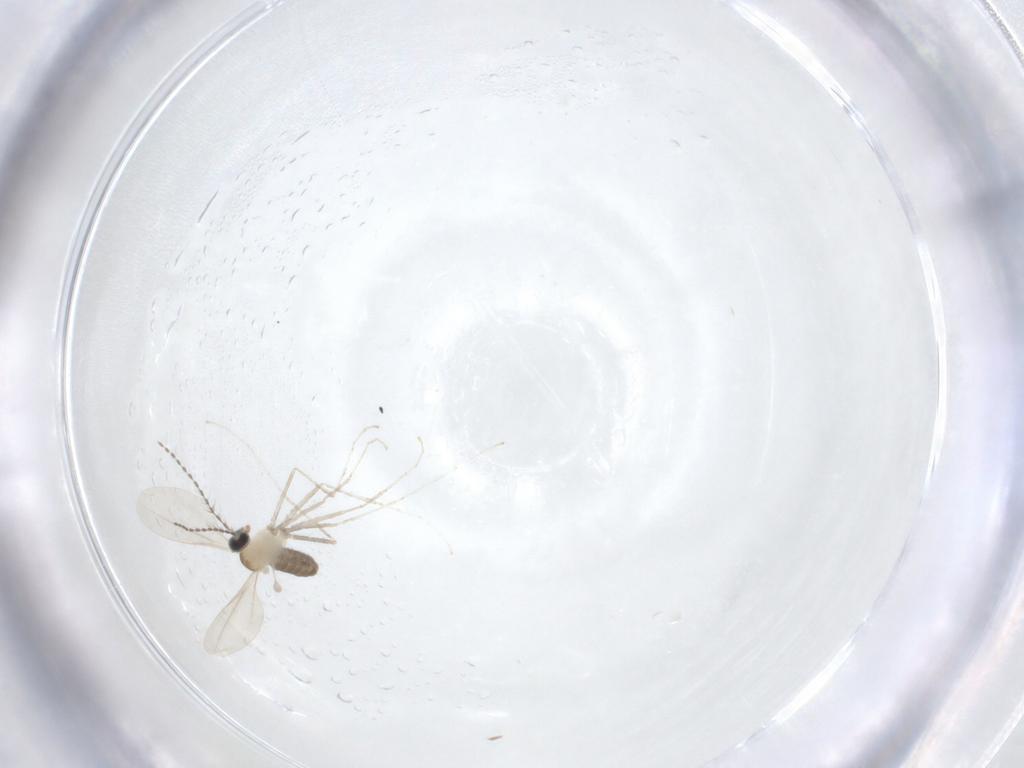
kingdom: Animalia
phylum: Arthropoda
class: Insecta
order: Diptera
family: Cecidomyiidae
